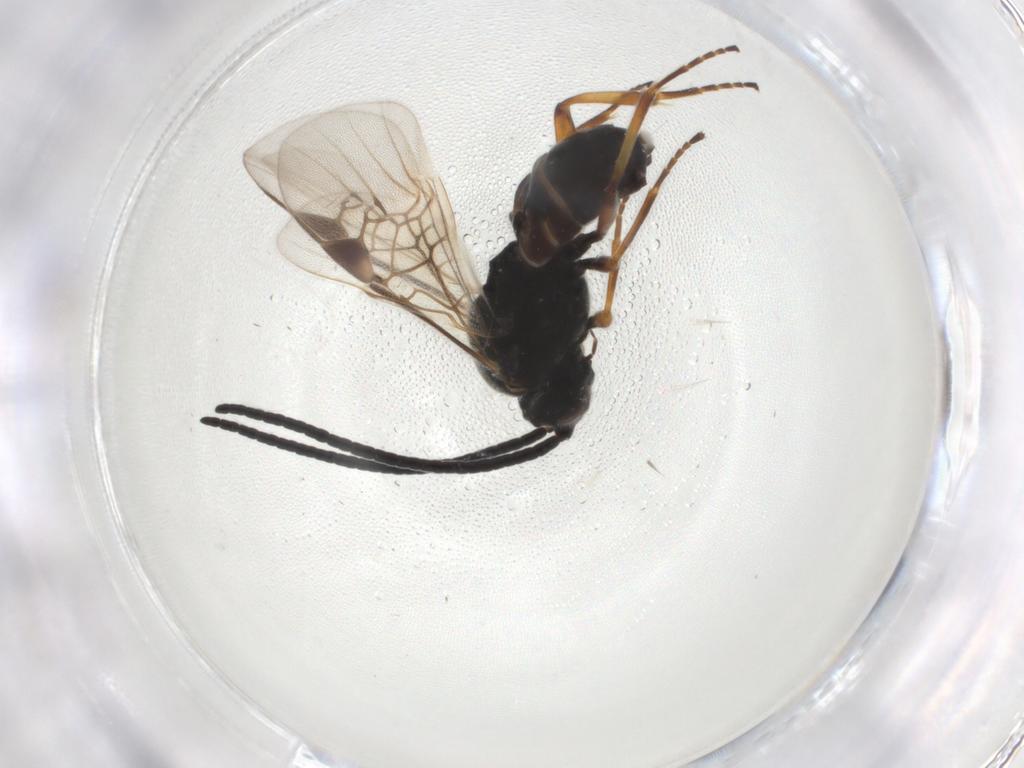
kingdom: Animalia
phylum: Arthropoda
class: Insecta
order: Hymenoptera
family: Braconidae
